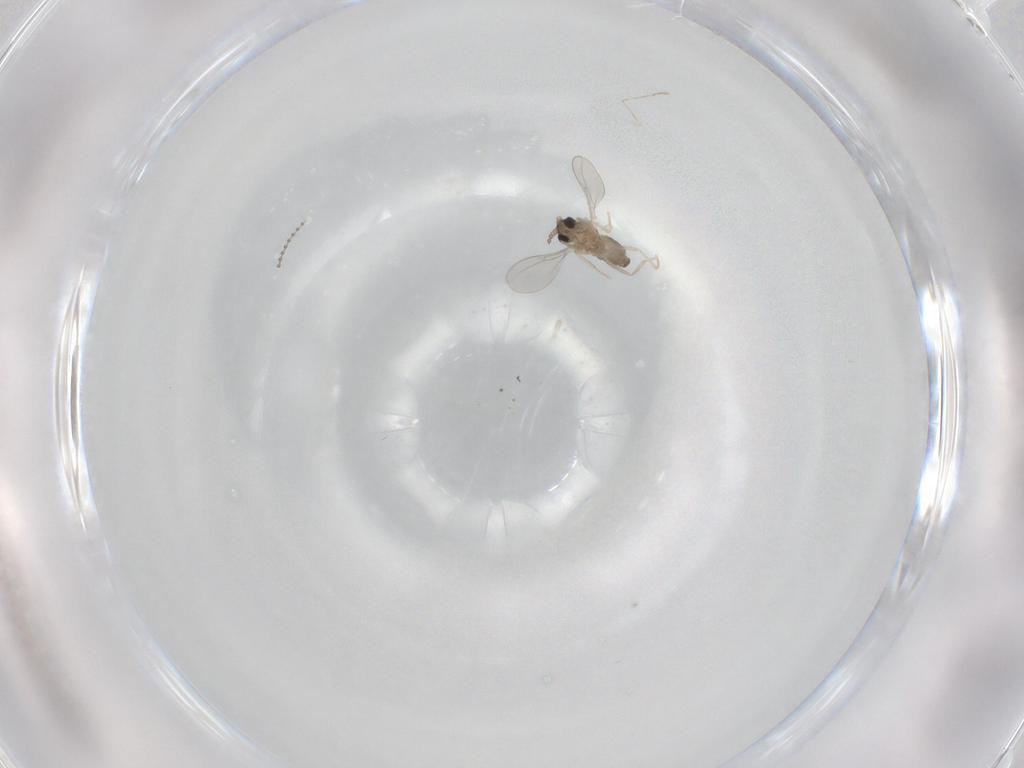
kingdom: Animalia
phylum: Arthropoda
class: Insecta
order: Diptera
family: Cecidomyiidae
